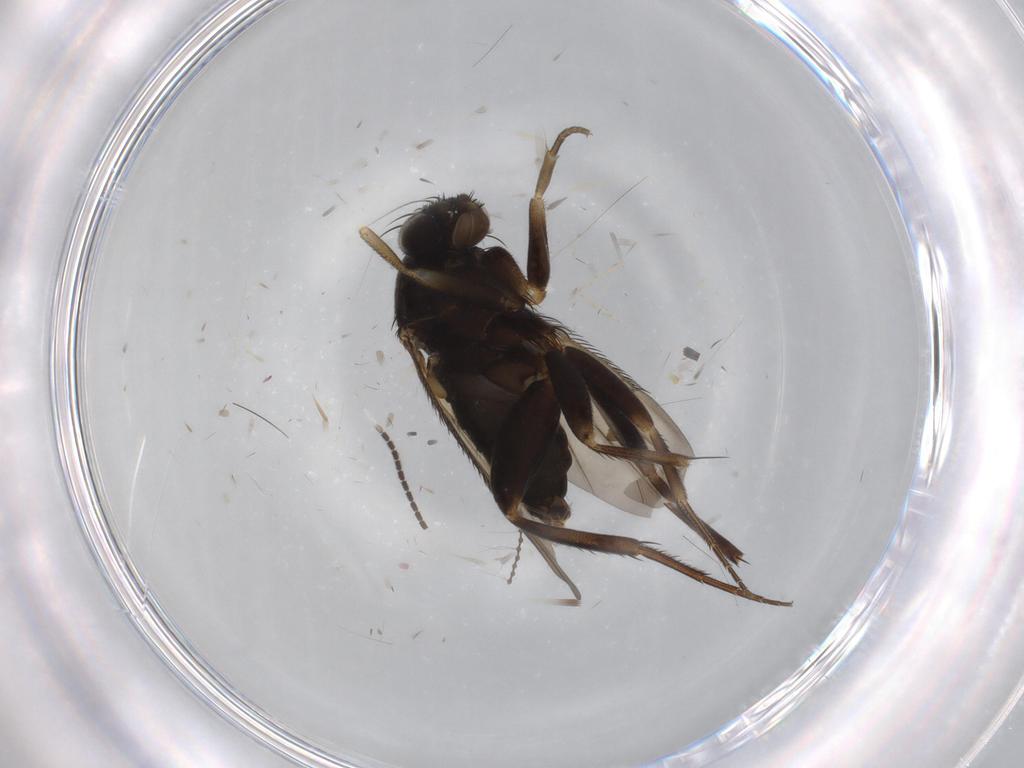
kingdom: Animalia
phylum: Arthropoda
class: Insecta
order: Diptera
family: Phoridae
